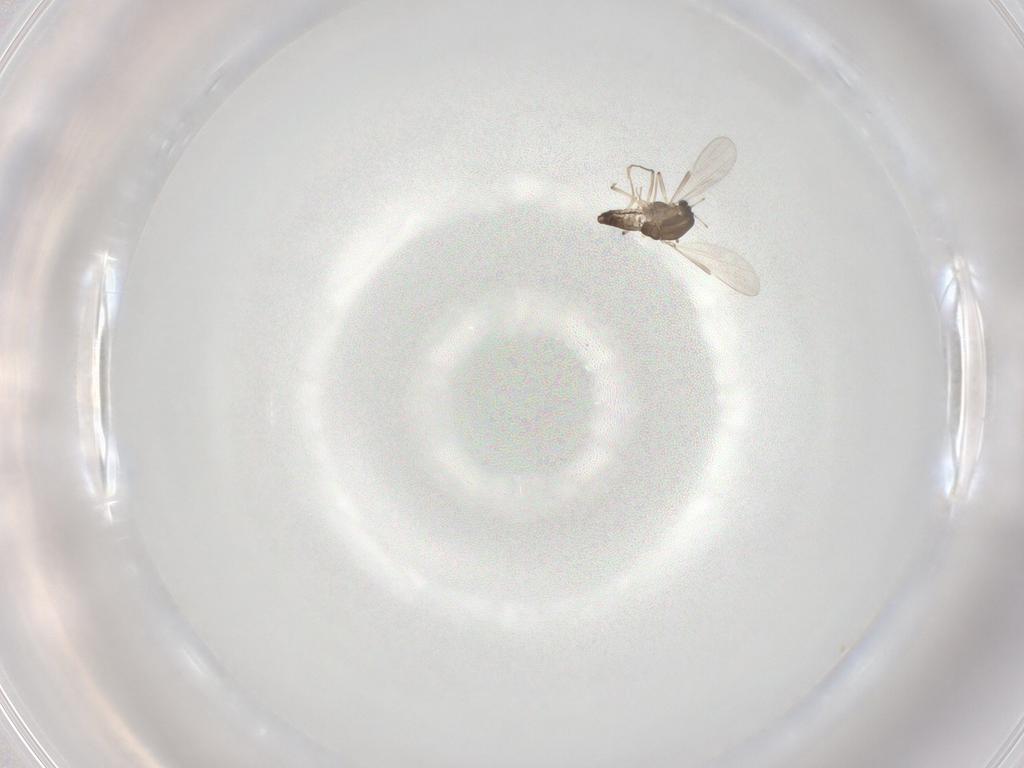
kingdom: Animalia
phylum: Arthropoda
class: Insecta
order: Diptera
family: Chironomidae
